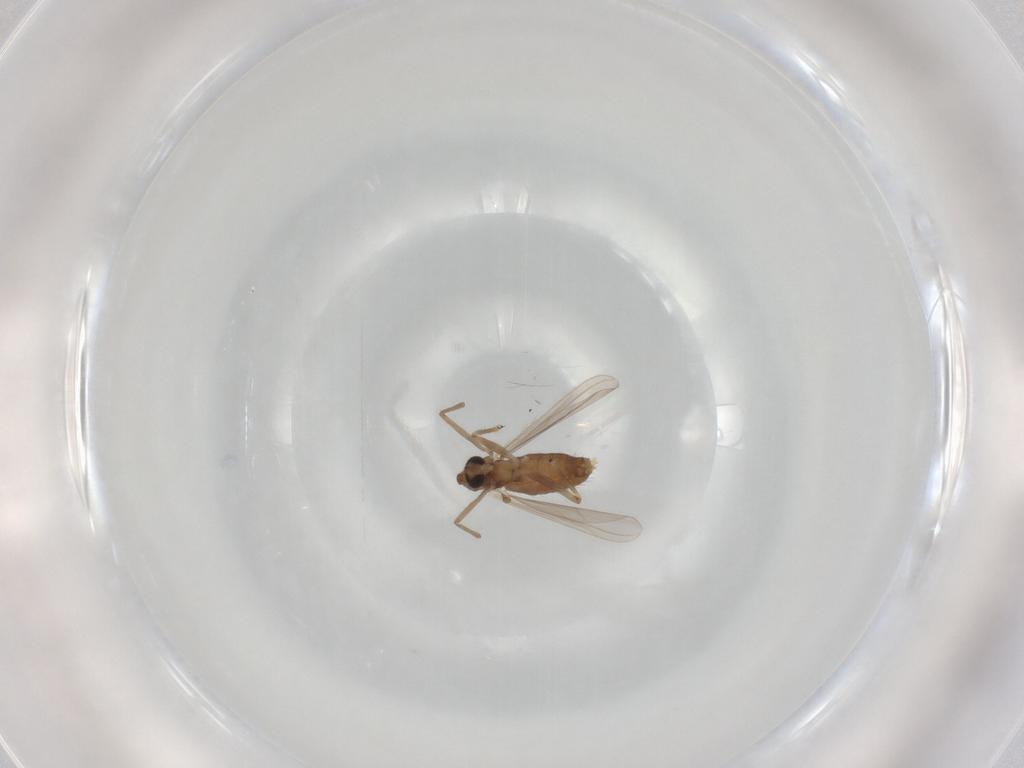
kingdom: Animalia
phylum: Arthropoda
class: Insecta
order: Diptera
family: Chironomidae
